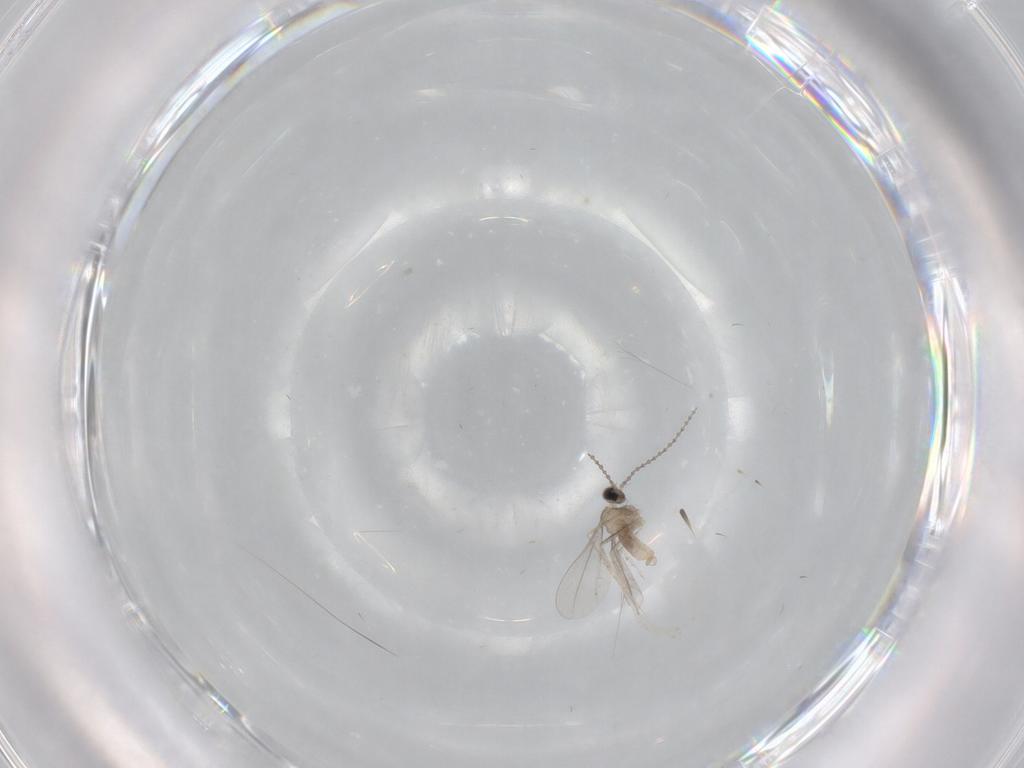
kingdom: Animalia
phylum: Arthropoda
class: Insecta
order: Diptera
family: Cecidomyiidae
